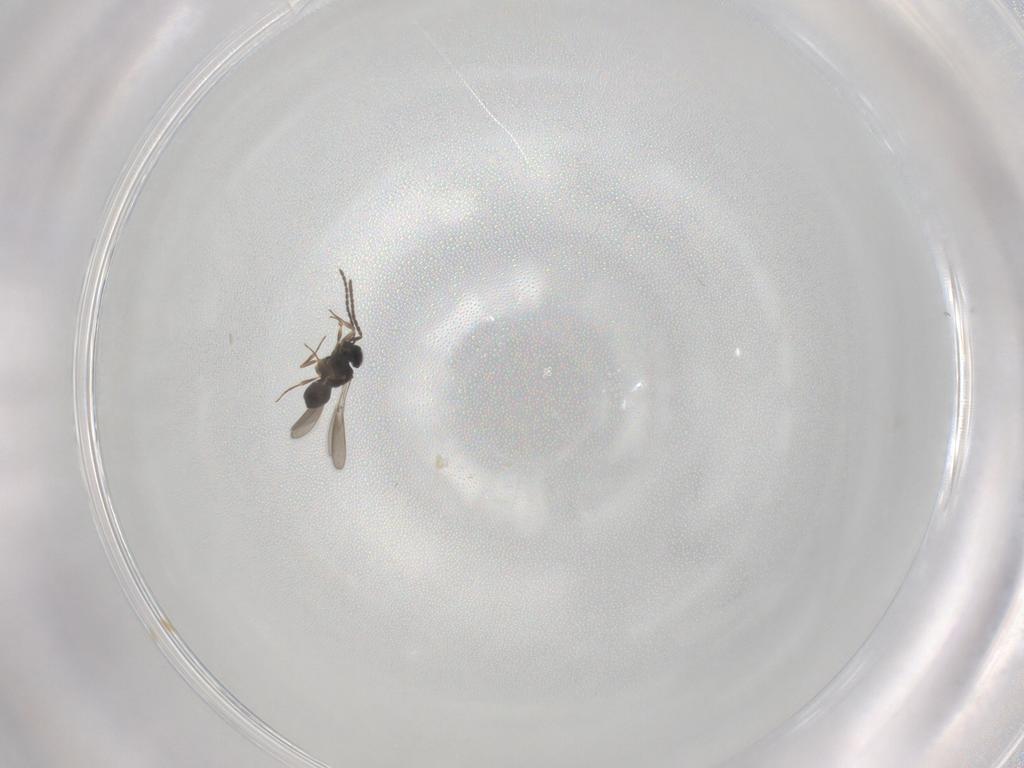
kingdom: Animalia
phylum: Arthropoda
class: Insecta
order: Hymenoptera
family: Scelionidae
